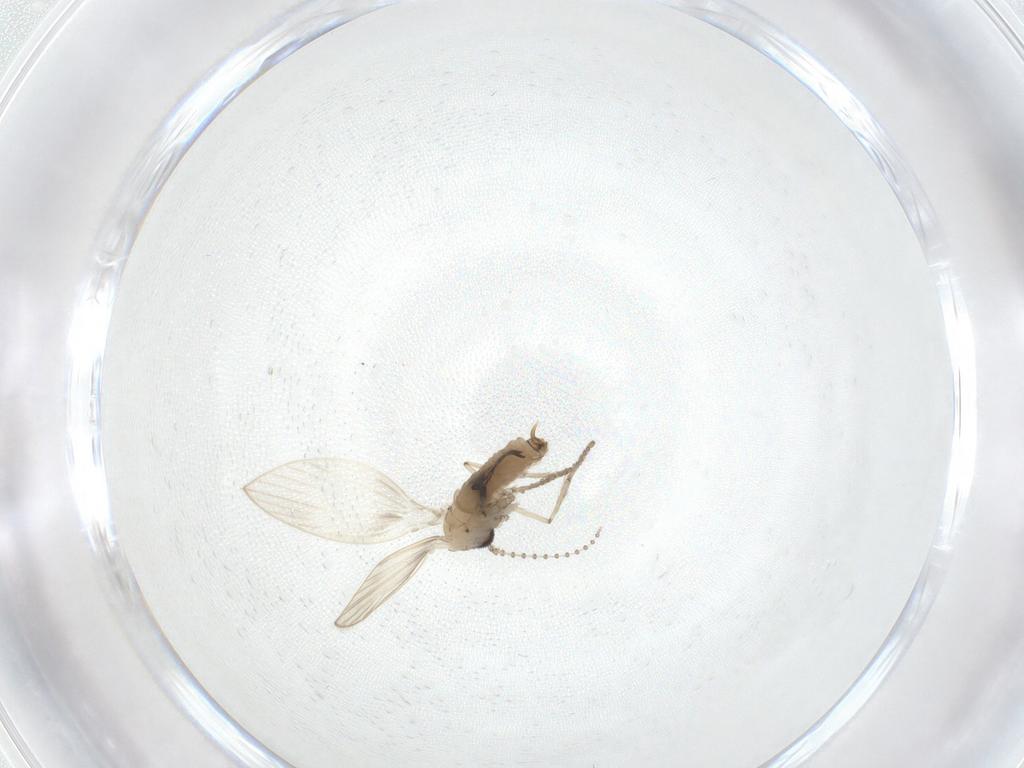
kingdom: Animalia
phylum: Arthropoda
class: Insecta
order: Diptera
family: Psychodidae
